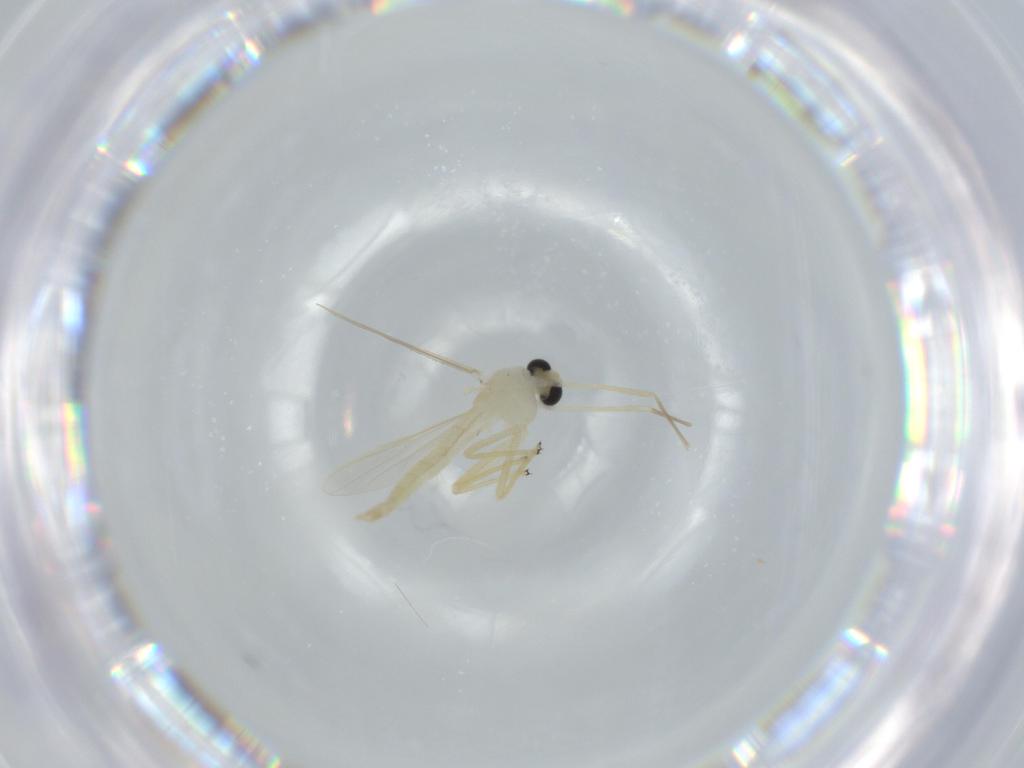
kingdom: Animalia
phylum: Arthropoda
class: Insecta
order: Diptera
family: Chironomidae
